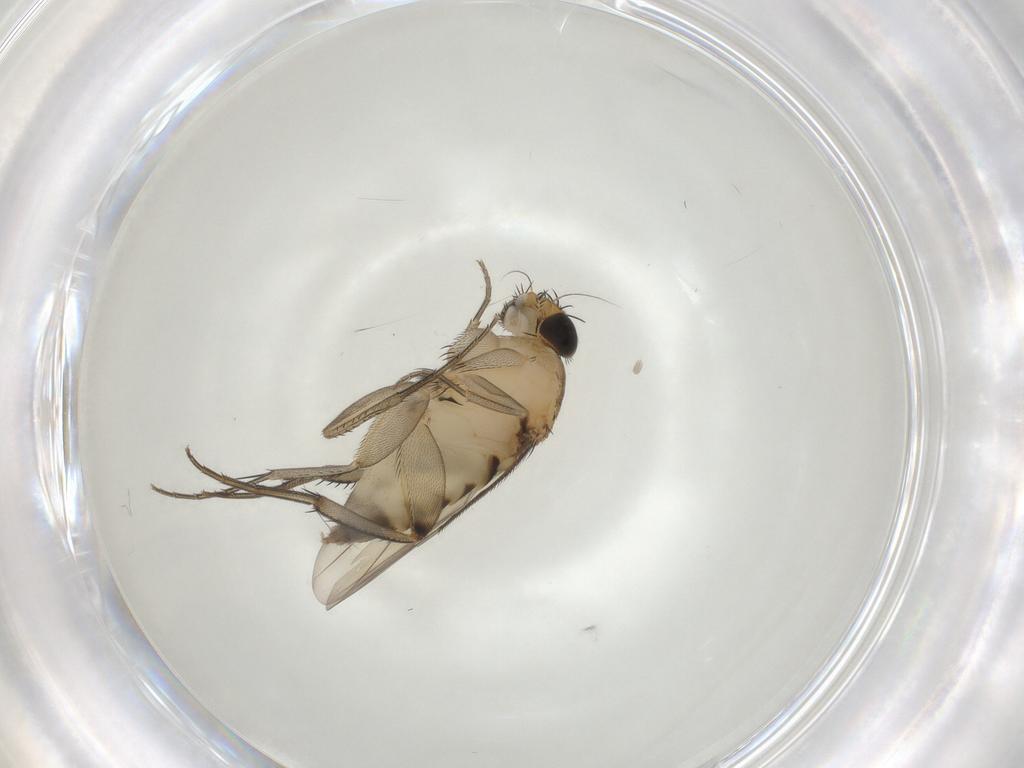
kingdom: Animalia
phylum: Arthropoda
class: Insecta
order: Diptera
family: Phoridae
